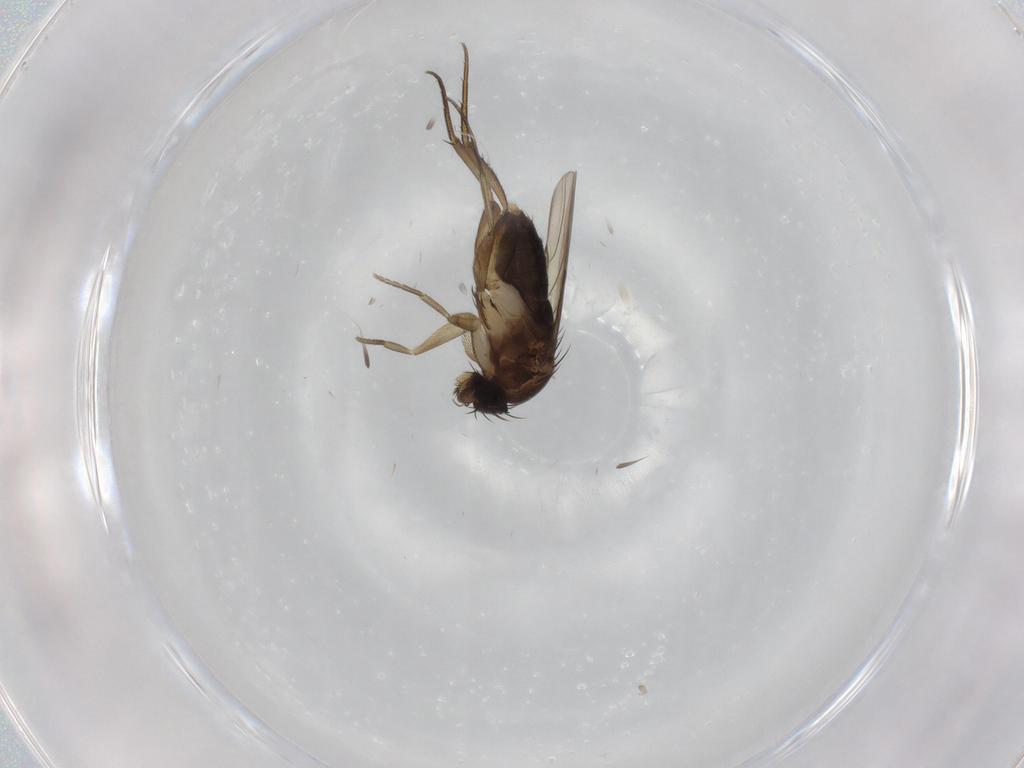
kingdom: Animalia
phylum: Arthropoda
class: Insecta
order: Diptera
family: Phoridae
